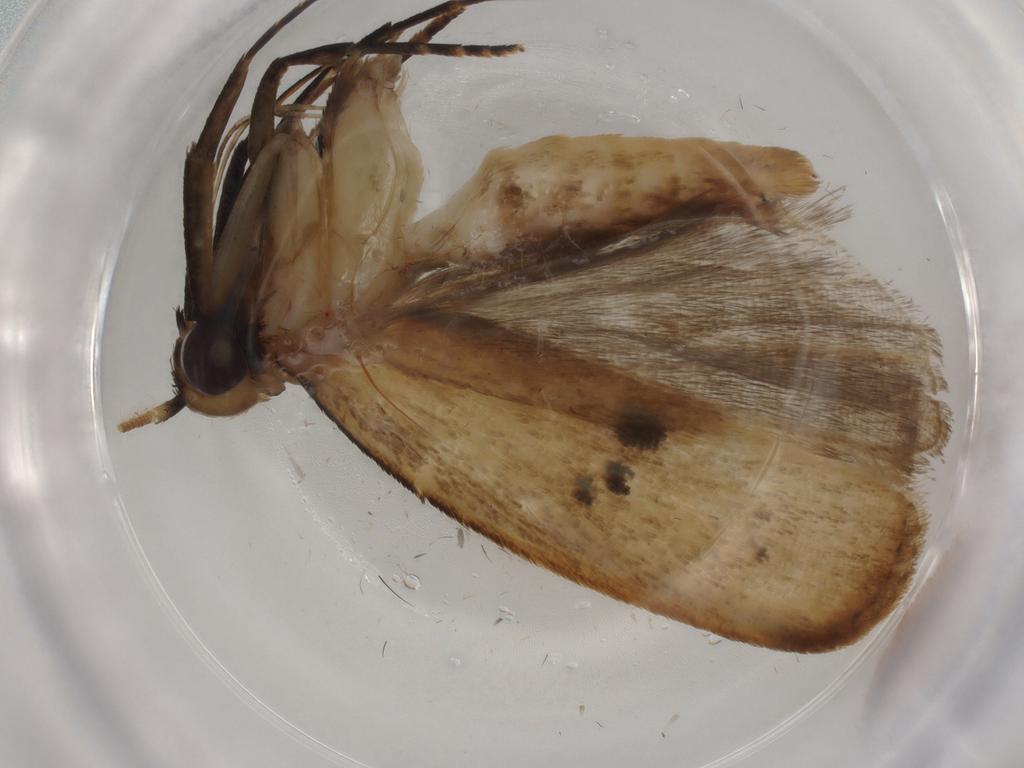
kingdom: Animalia
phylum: Arthropoda
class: Insecta
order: Lepidoptera
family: Gelechiidae
